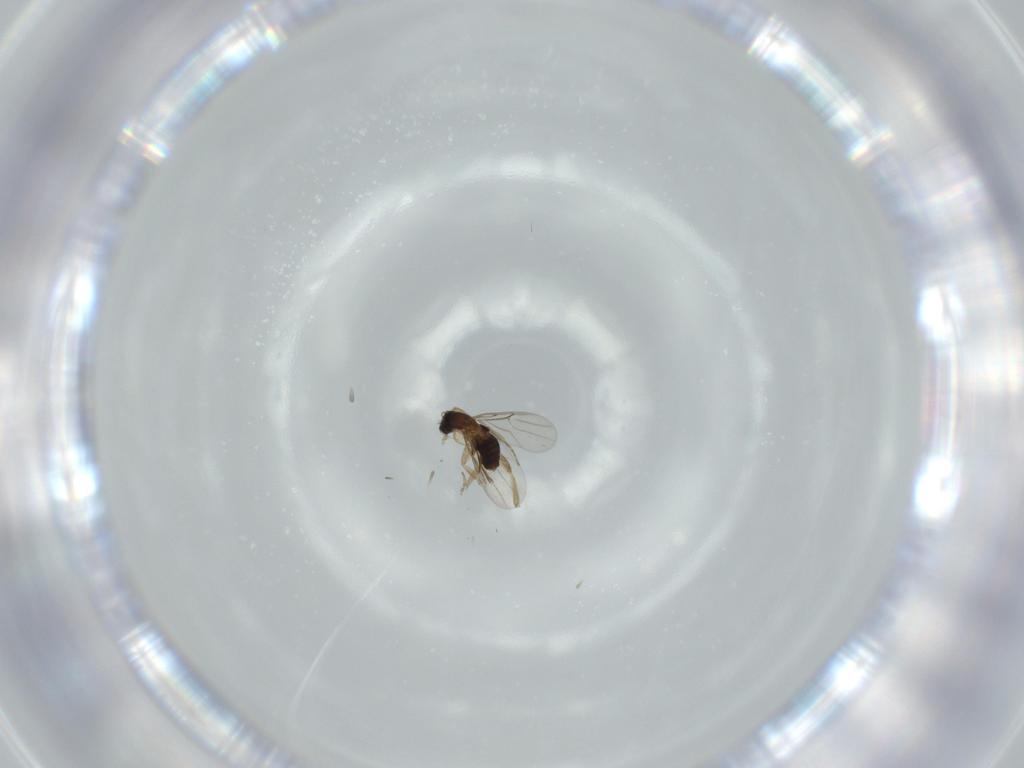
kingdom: Animalia
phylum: Arthropoda
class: Insecta
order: Diptera
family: Phoridae
